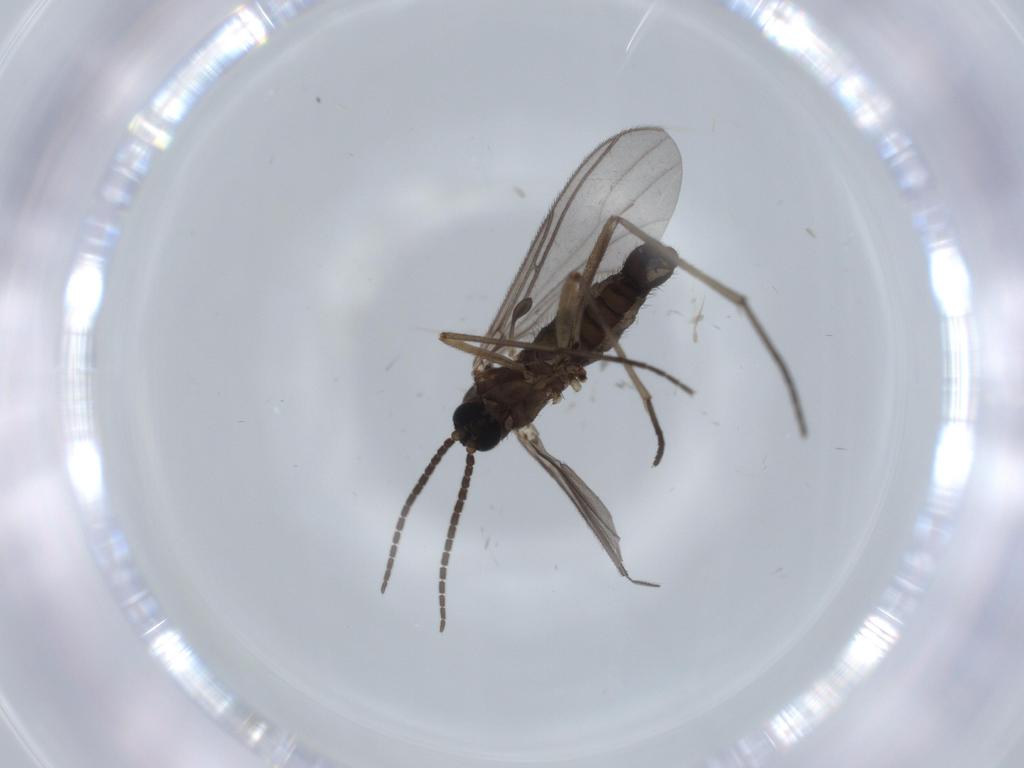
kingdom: Animalia
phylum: Arthropoda
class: Insecta
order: Diptera
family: Sciaridae
